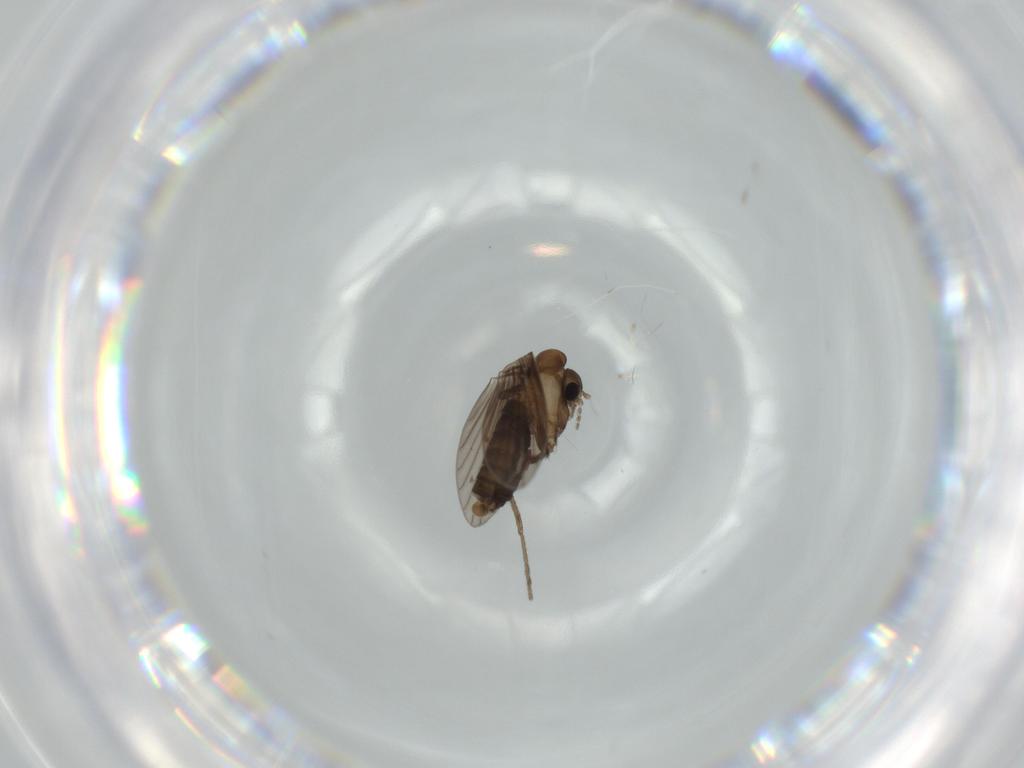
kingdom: Animalia
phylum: Arthropoda
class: Insecta
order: Diptera
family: Psychodidae
